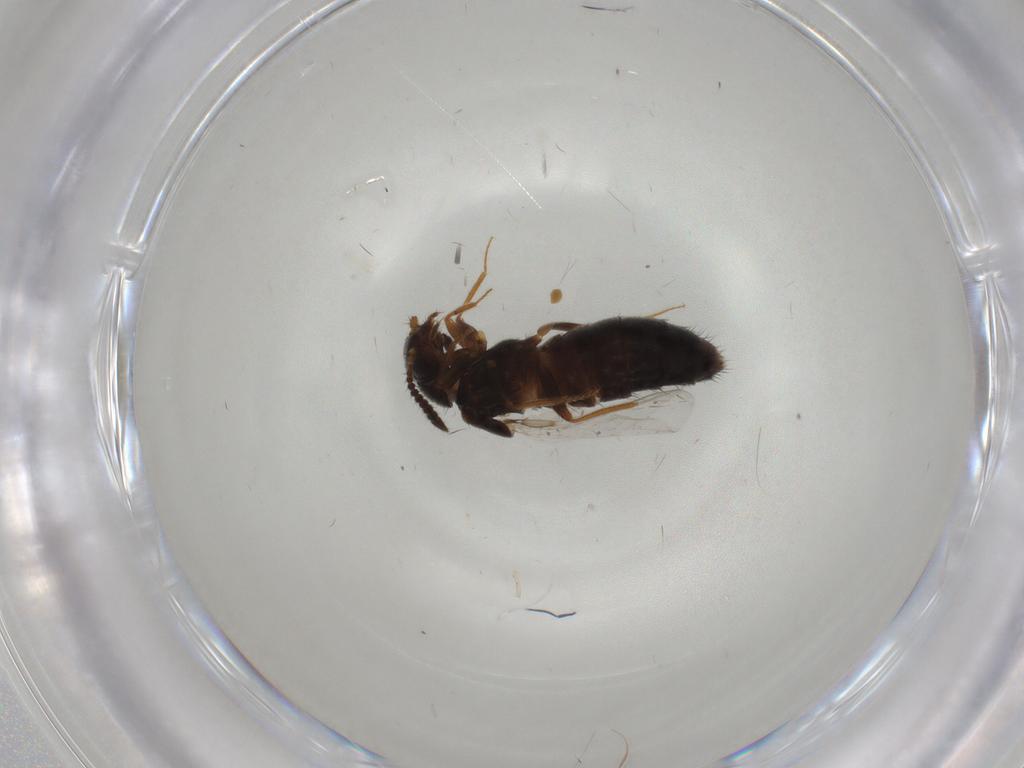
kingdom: Animalia
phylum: Arthropoda
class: Insecta
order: Coleoptera
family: Staphylinidae
